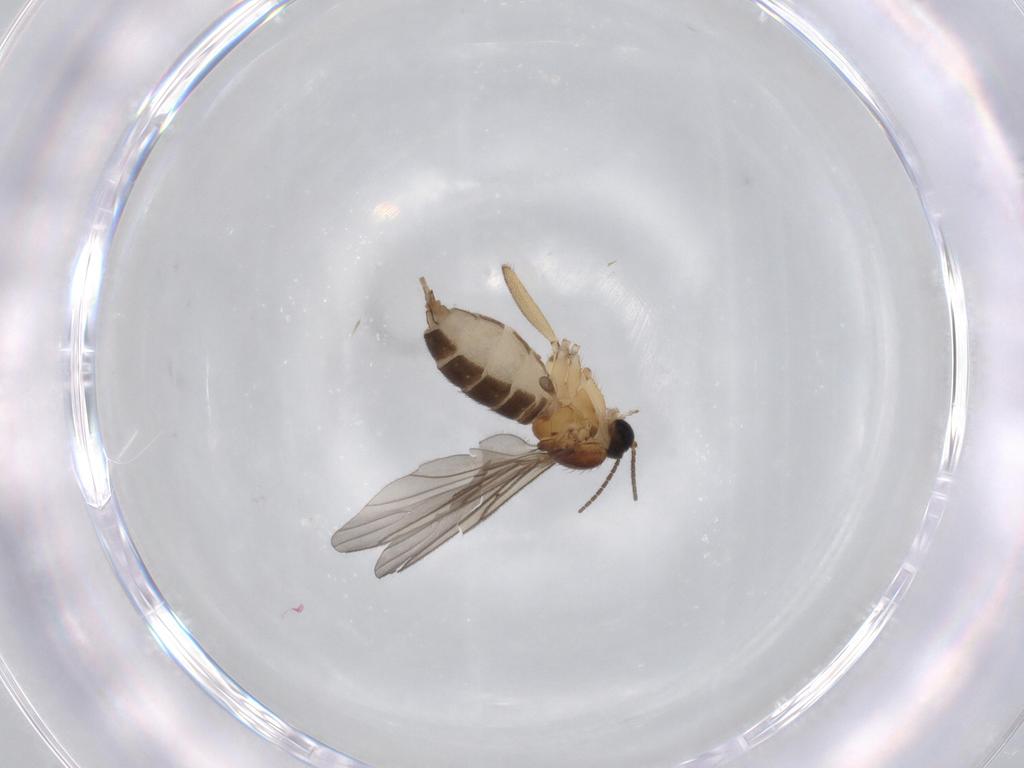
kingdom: Animalia
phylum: Arthropoda
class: Insecta
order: Diptera
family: Sciaridae
